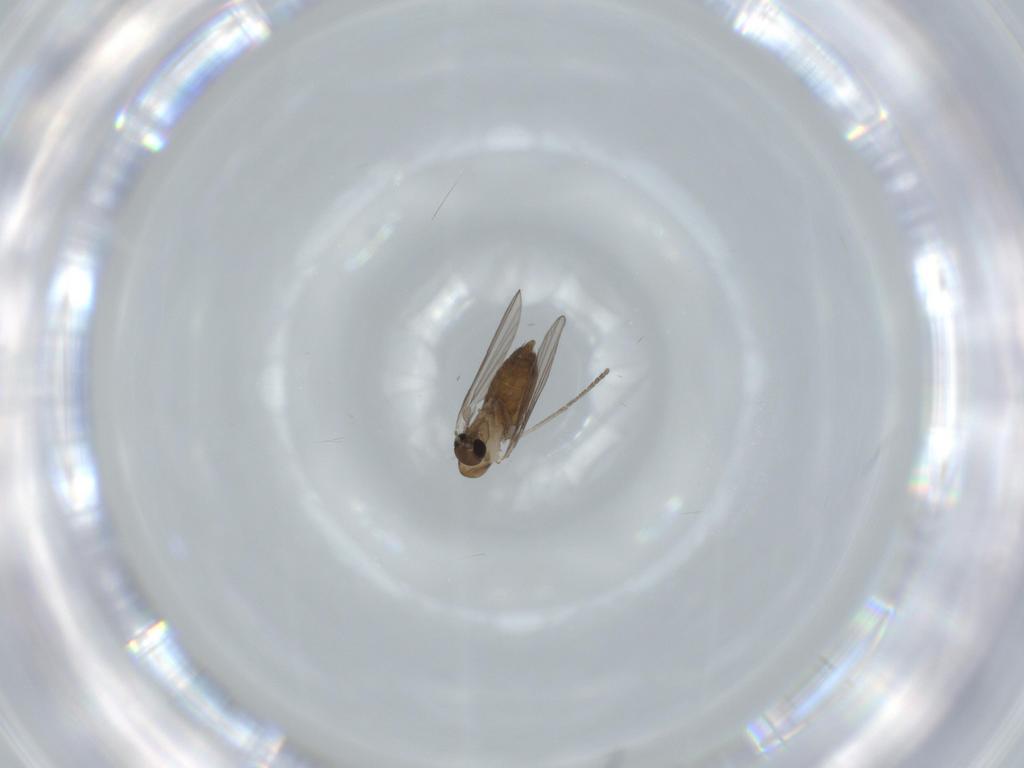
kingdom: Animalia
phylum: Arthropoda
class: Insecta
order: Diptera
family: Psychodidae
